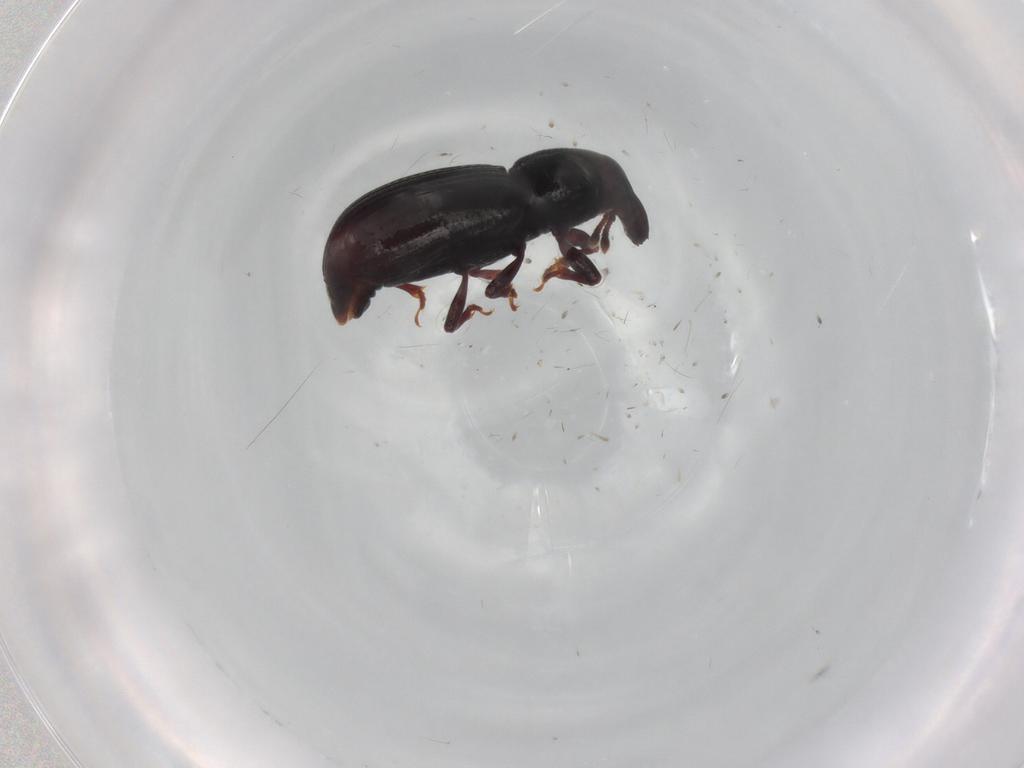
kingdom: Animalia
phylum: Arthropoda
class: Insecta
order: Coleoptera
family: Curculionidae
